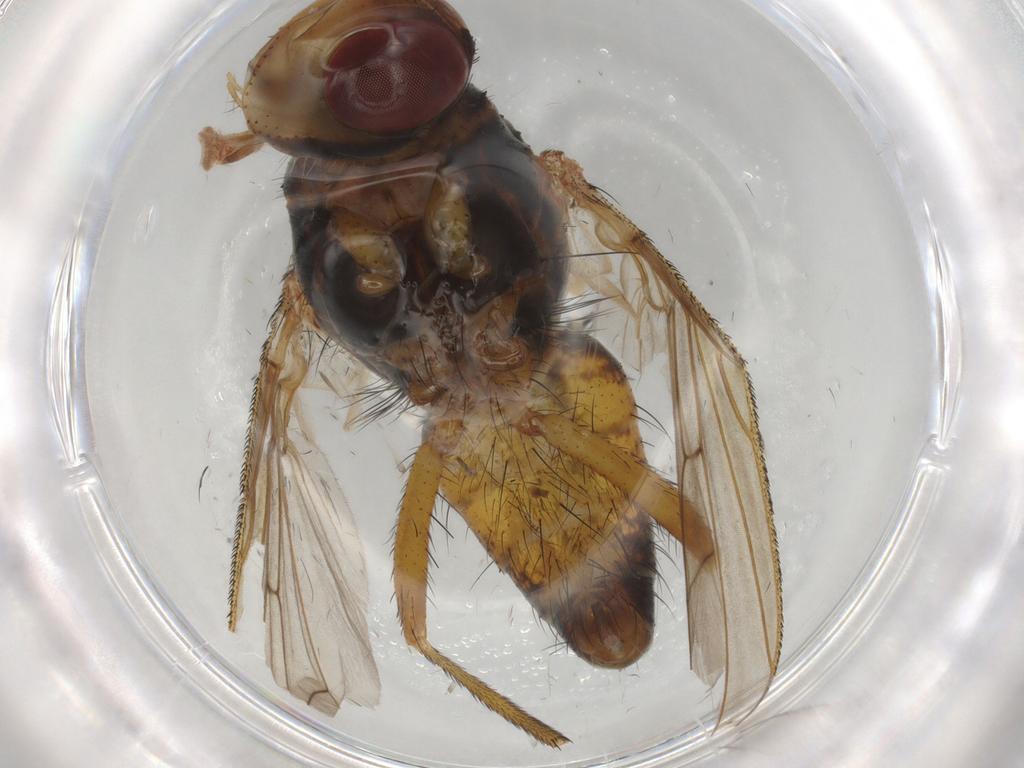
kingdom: Animalia
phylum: Arthropoda
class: Insecta
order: Diptera
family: Tachinidae
